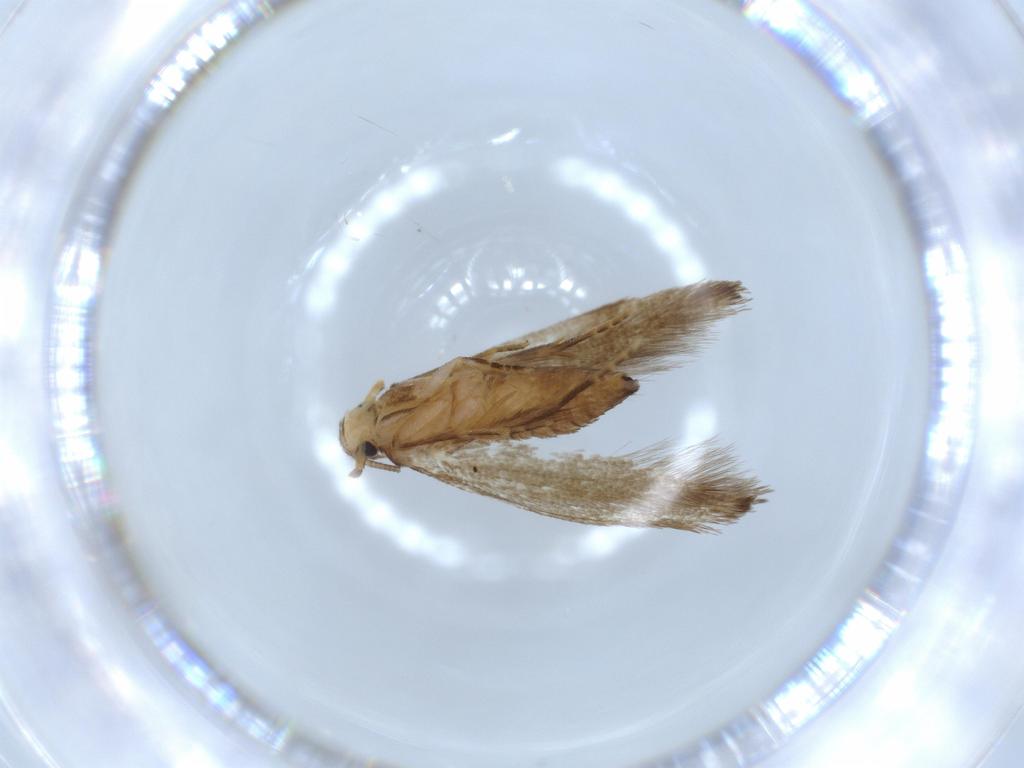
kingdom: Animalia
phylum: Arthropoda
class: Insecta
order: Lepidoptera
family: Tineidae
